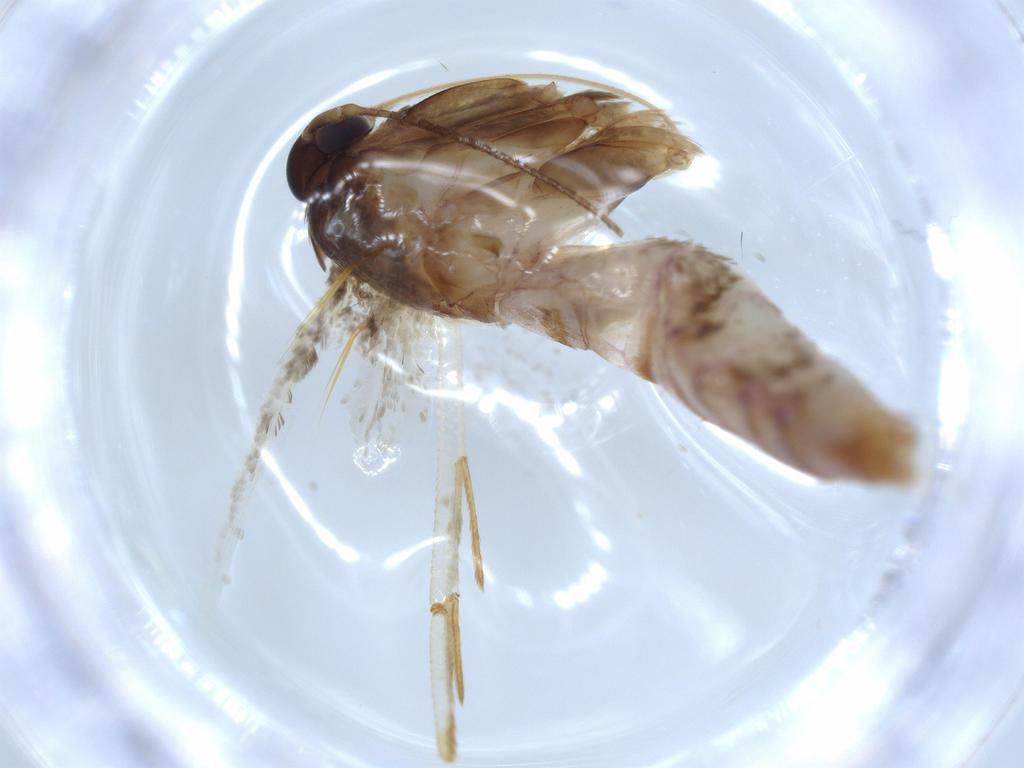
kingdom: Animalia
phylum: Arthropoda
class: Insecta
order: Lepidoptera
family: Blastobasidae
